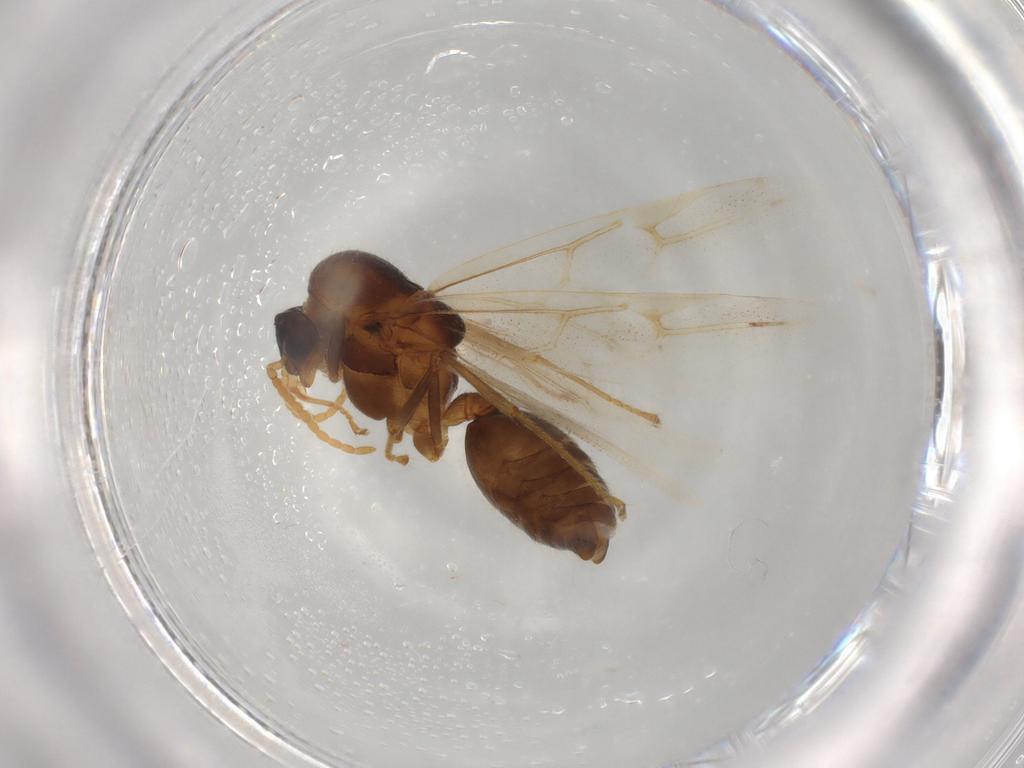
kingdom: Animalia
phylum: Arthropoda
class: Insecta
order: Hymenoptera
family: Formicidae
